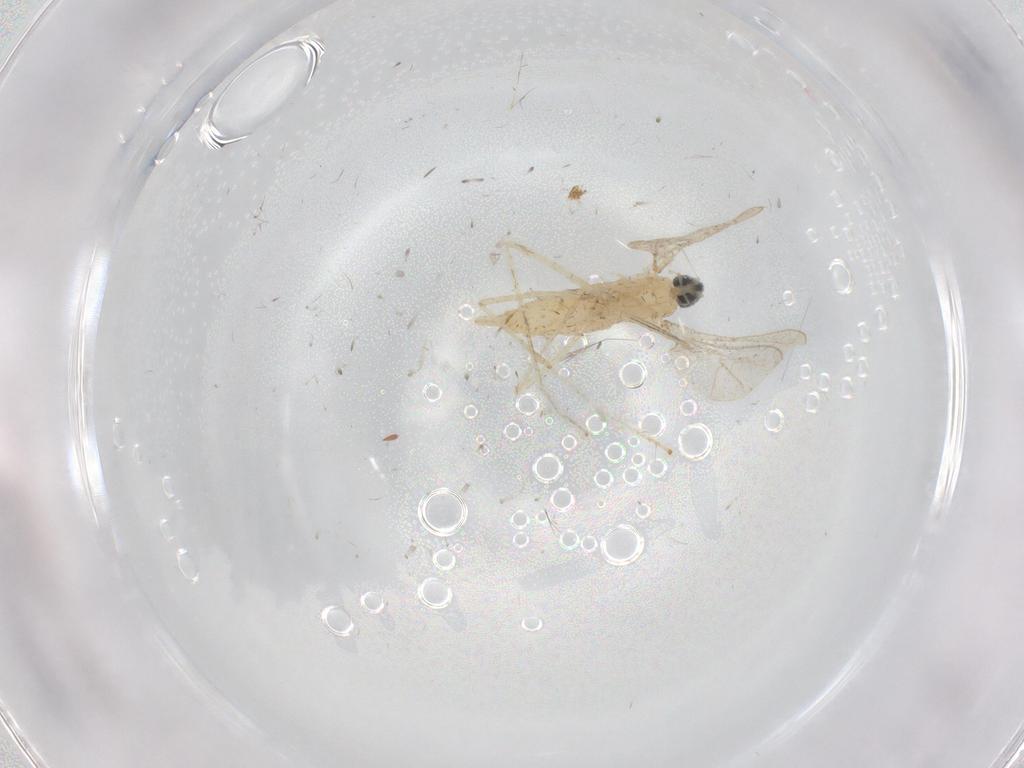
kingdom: Animalia
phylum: Arthropoda
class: Insecta
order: Diptera
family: Cecidomyiidae
